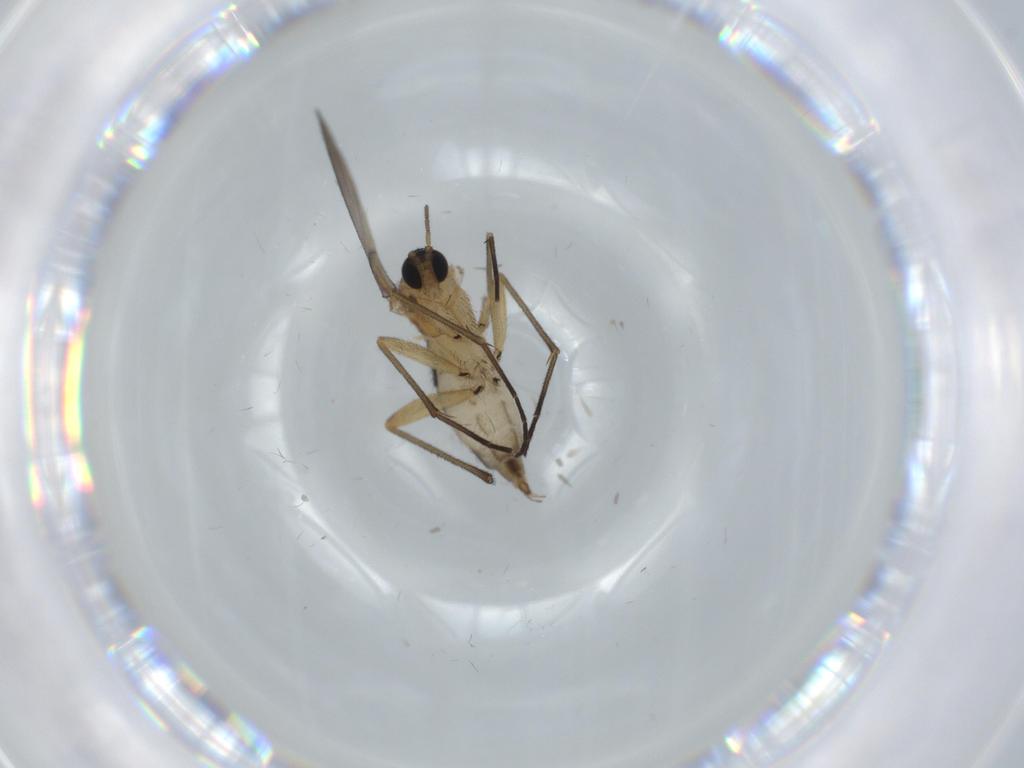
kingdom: Animalia
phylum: Arthropoda
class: Insecta
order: Diptera
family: Sciaridae
